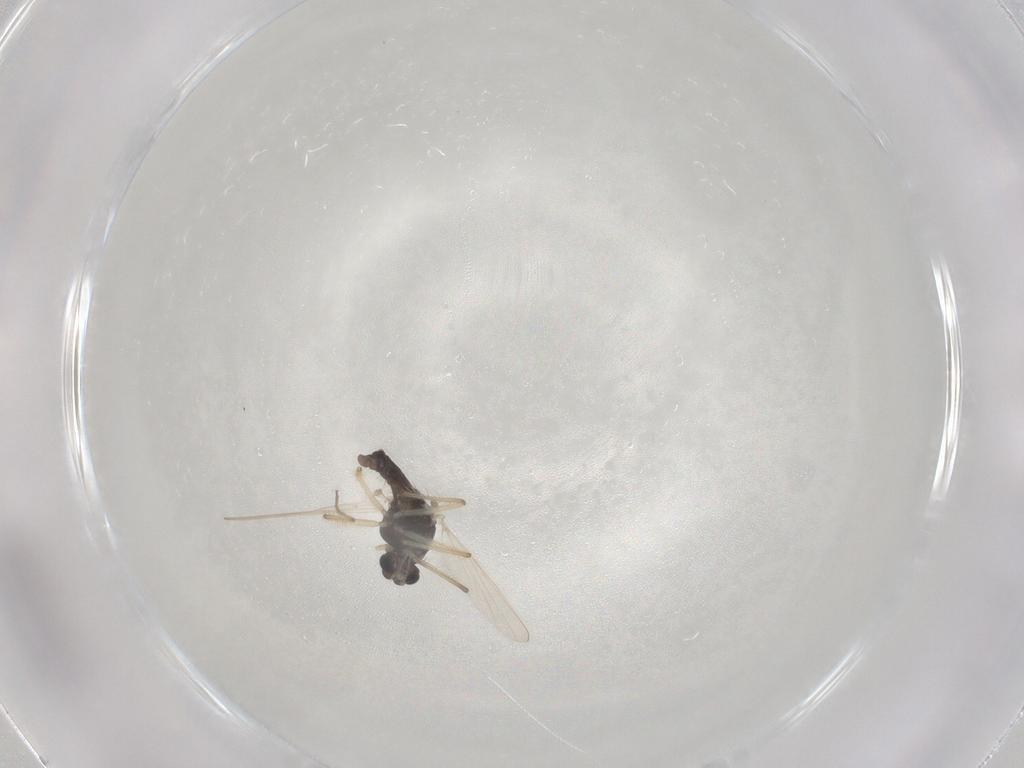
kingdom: Animalia
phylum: Arthropoda
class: Insecta
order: Diptera
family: Chironomidae
